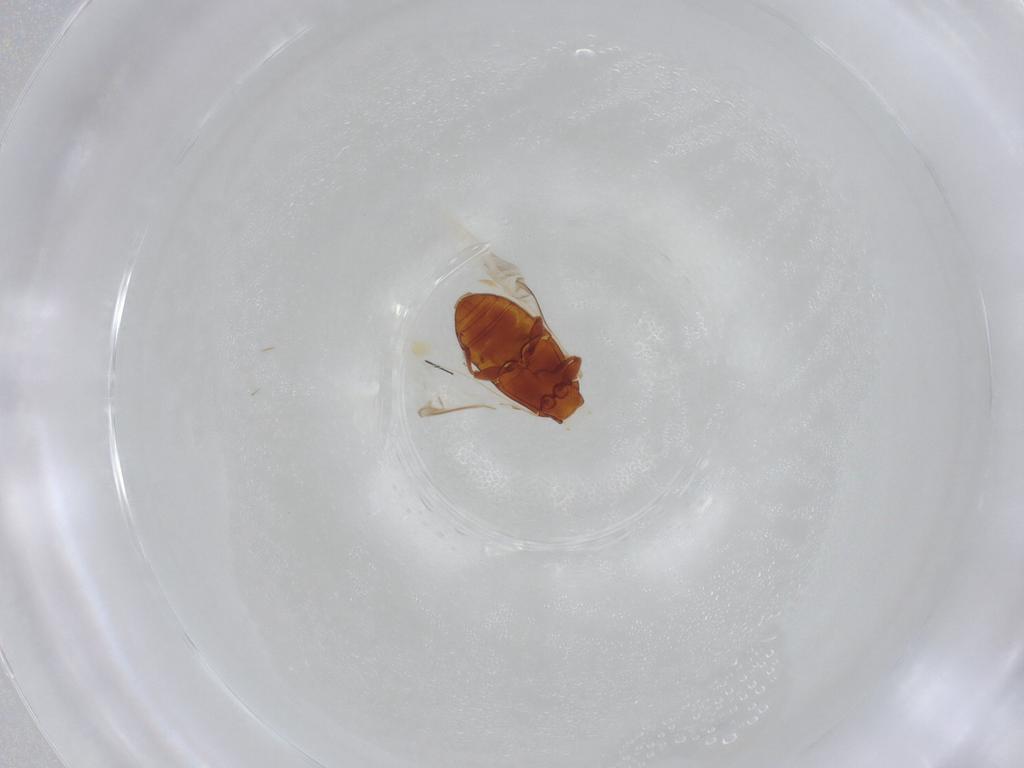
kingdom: Animalia
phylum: Arthropoda
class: Insecta
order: Coleoptera
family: Zopheridae
